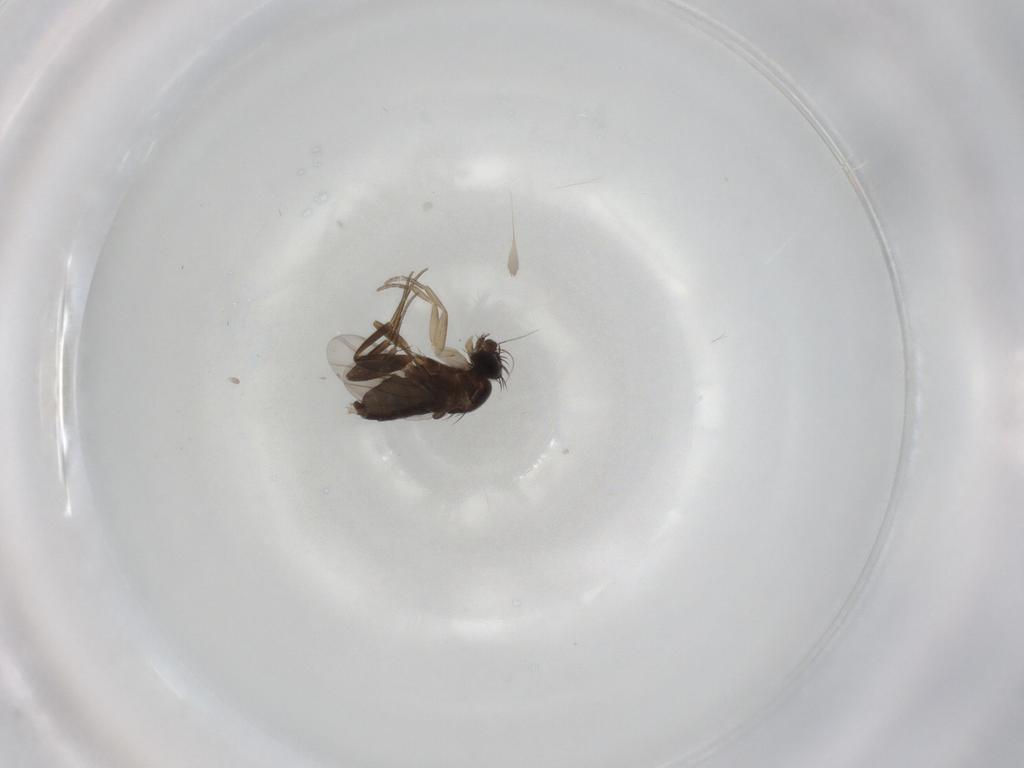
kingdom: Animalia
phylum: Arthropoda
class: Insecta
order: Diptera
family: Phoridae
